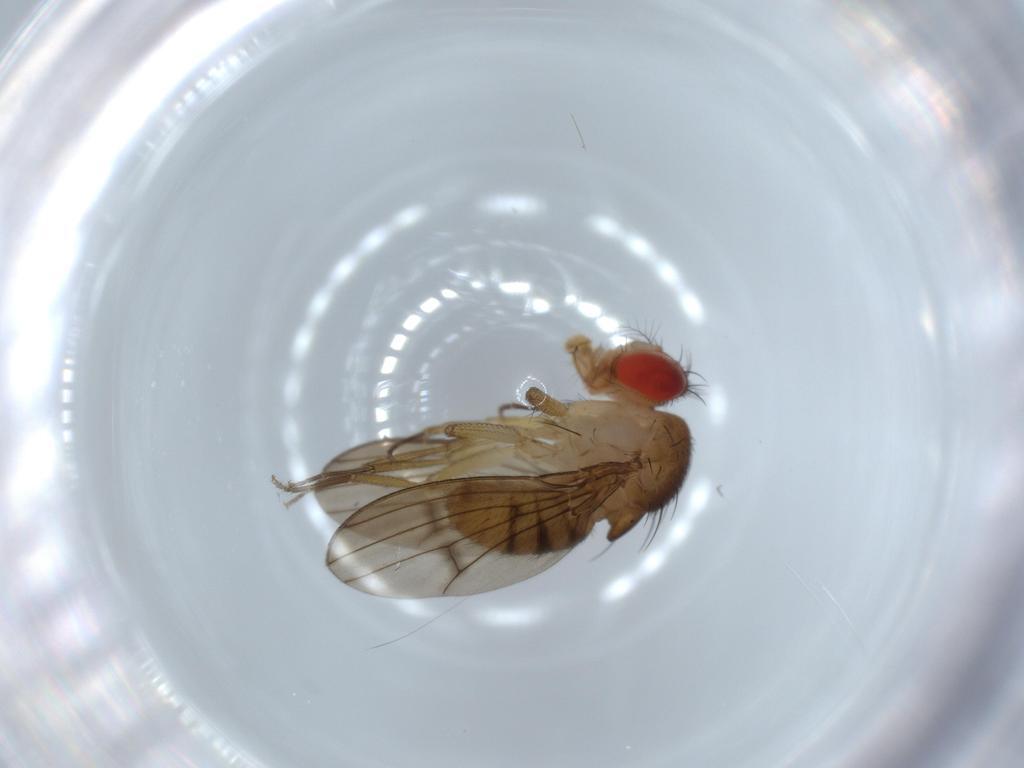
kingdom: Animalia
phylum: Arthropoda
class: Insecta
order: Diptera
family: Drosophilidae
